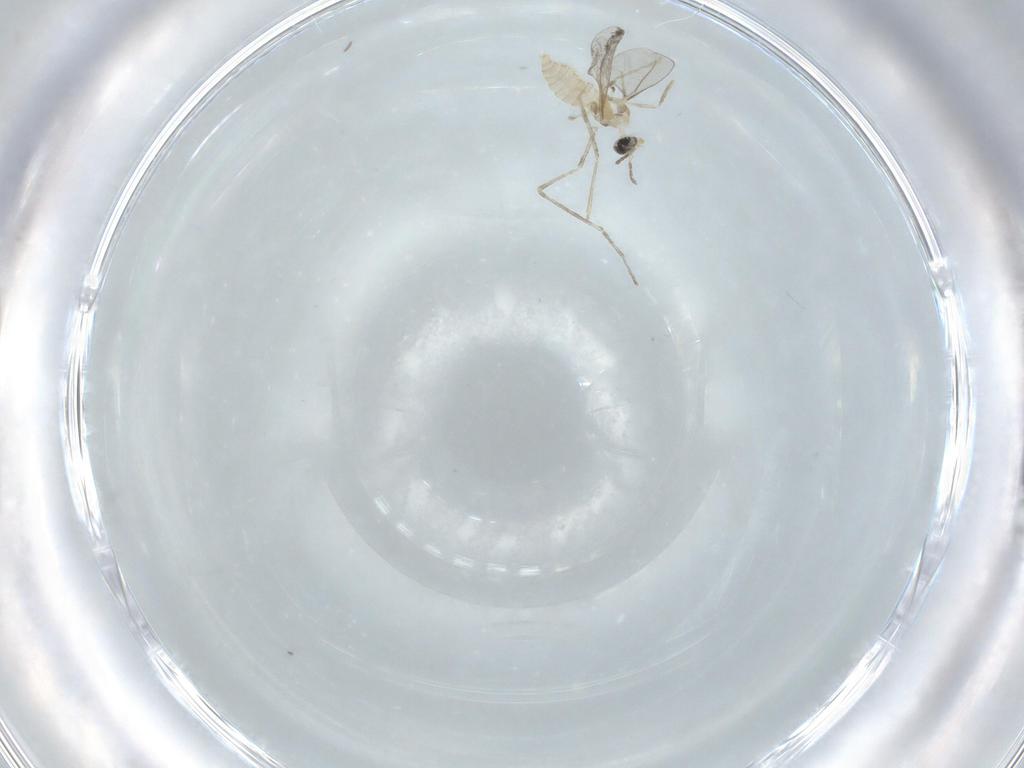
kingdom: Animalia
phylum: Arthropoda
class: Insecta
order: Diptera
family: Cecidomyiidae
